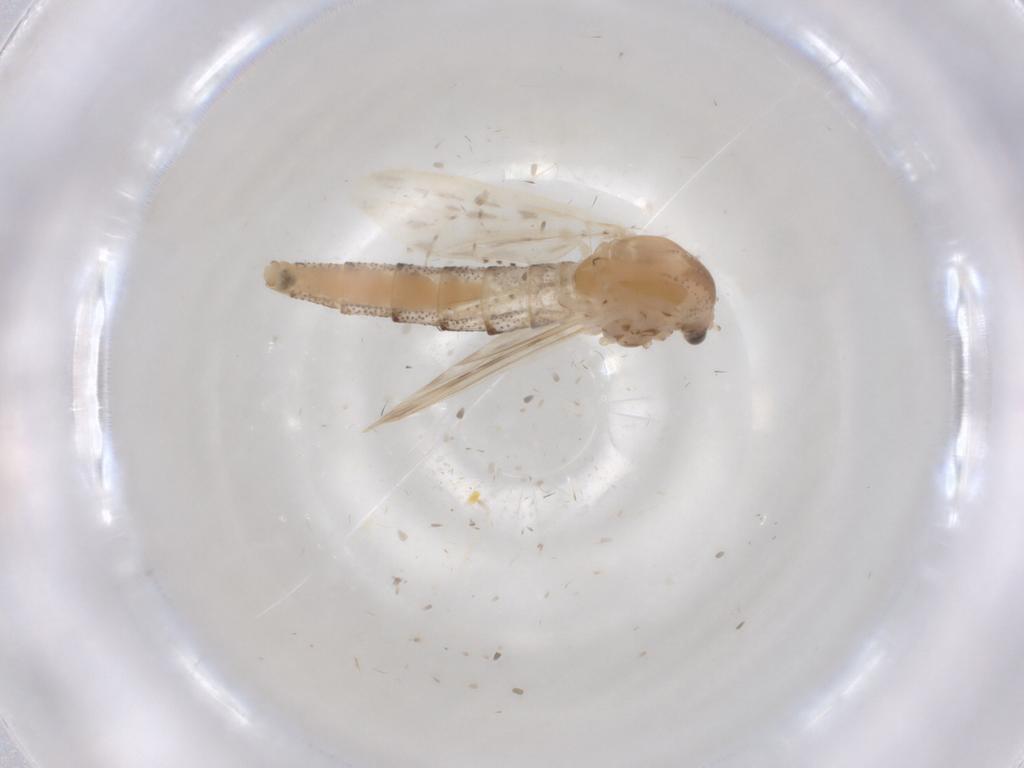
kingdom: Animalia
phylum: Arthropoda
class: Insecta
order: Diptera
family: Chaoboridae
